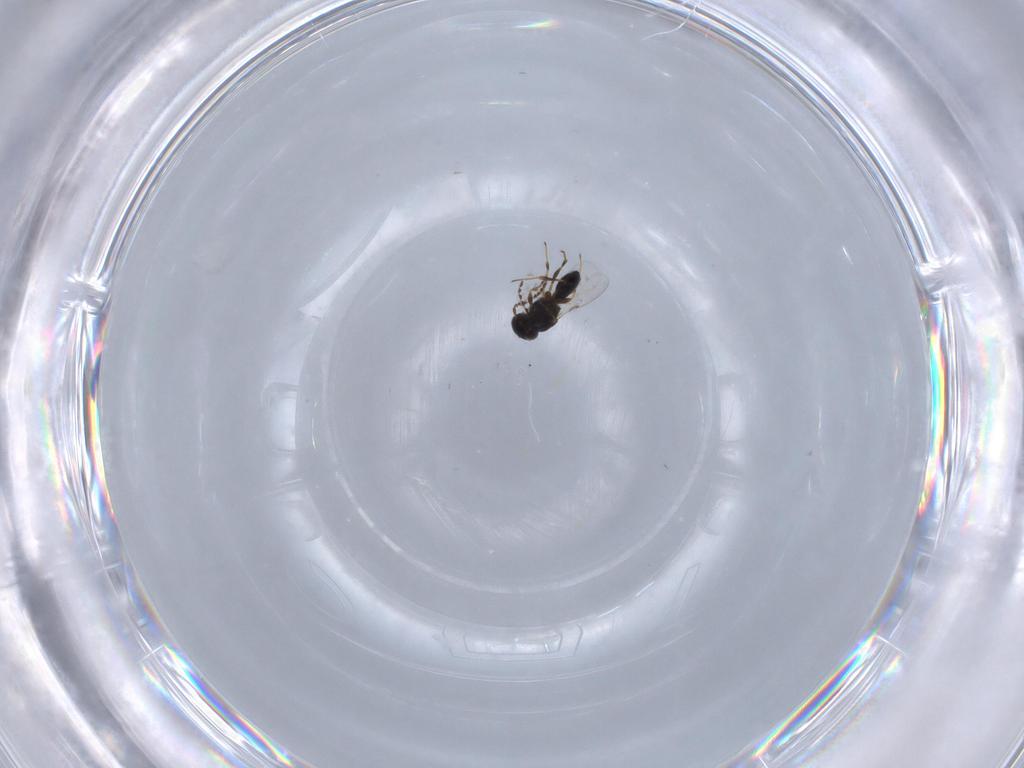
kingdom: Animalia
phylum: Arthropoda
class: Insecta
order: Hymenoptera
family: Platygastridae
